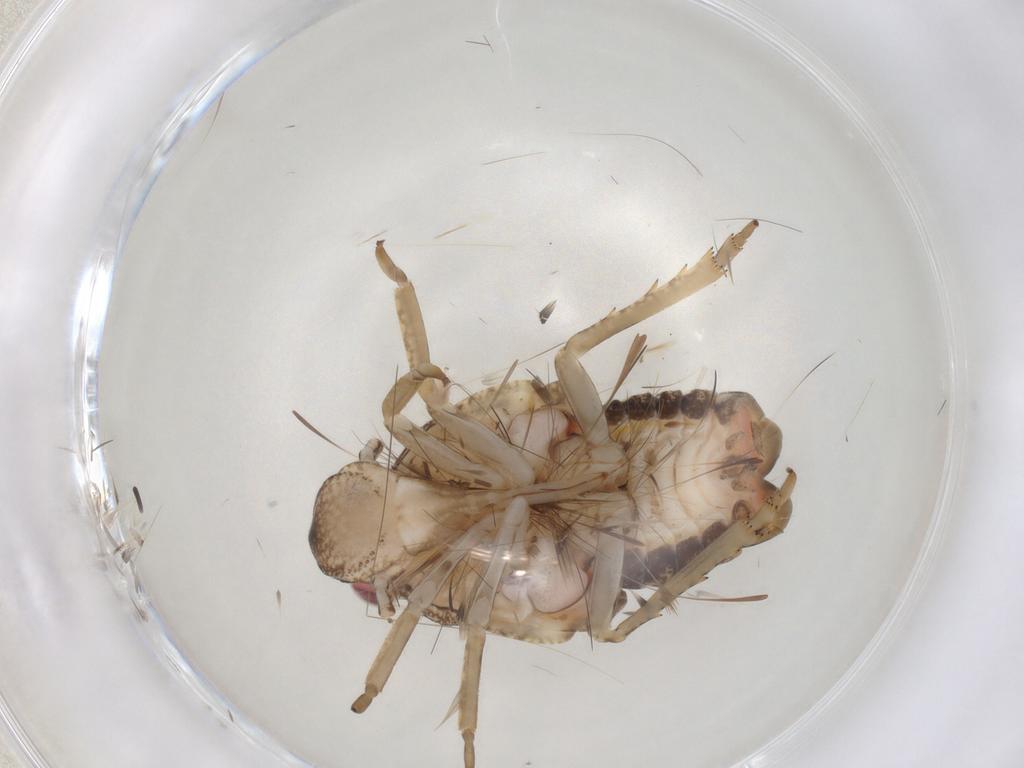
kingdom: Animalia
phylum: Arthropoda
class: Insecta
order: Hemiptera
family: Flatidae
